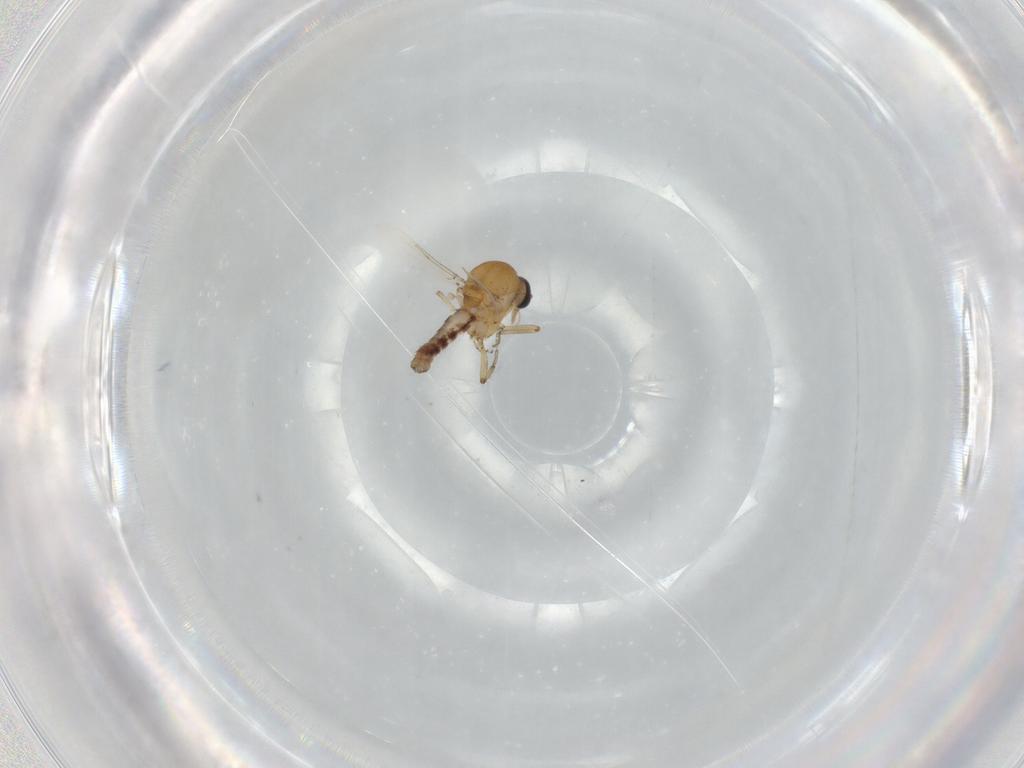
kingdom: Animalia
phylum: Arthropoda
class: Insecta
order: Diptera
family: Ceratopogonidae
